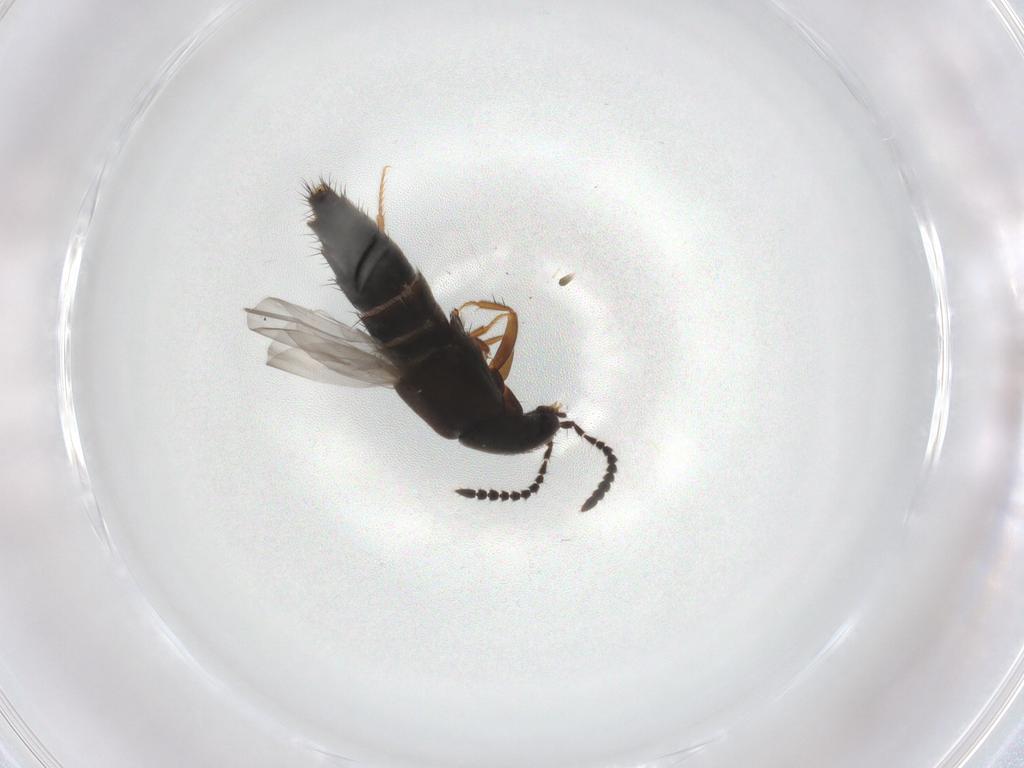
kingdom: Animalia
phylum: Arthropoda
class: Insecta
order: Coleoptera
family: Staphylinidae
